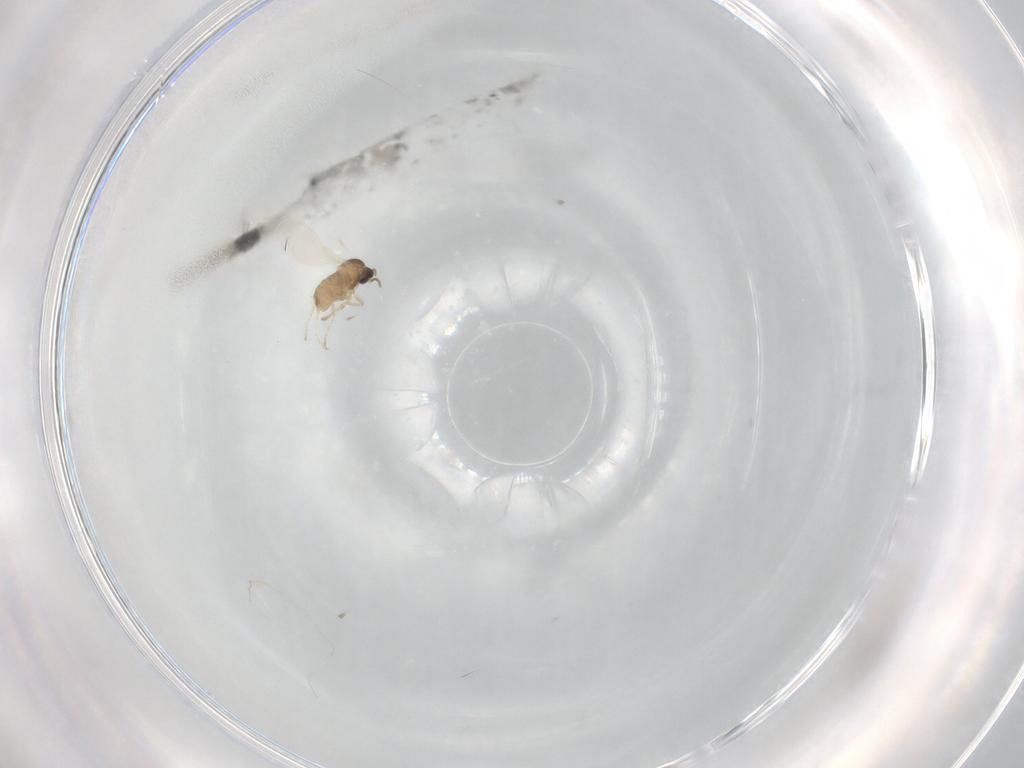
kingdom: Animalia
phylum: Arthropoda
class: Insecta
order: Diptera
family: Cecidomyiidae
